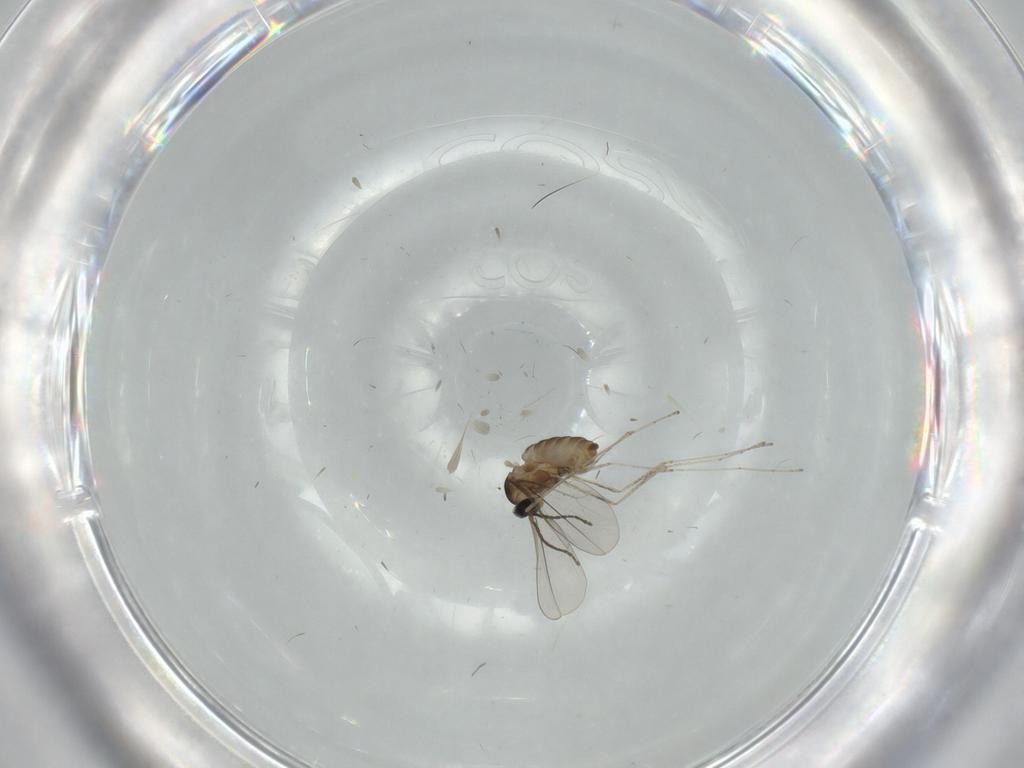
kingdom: Animalia
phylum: Arthropoda
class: Insecta
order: Diptera
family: Cecidomyiidae
